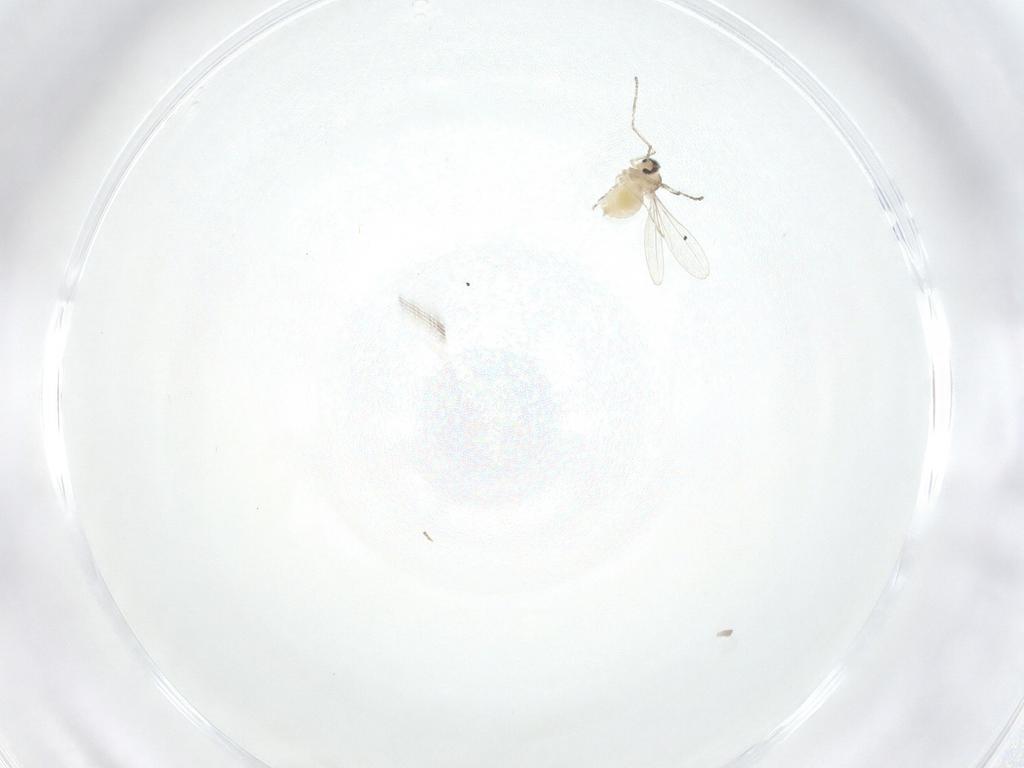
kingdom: Animalia
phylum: Arthropoda
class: Insecta
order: Diptera
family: Cecidomyiidae
